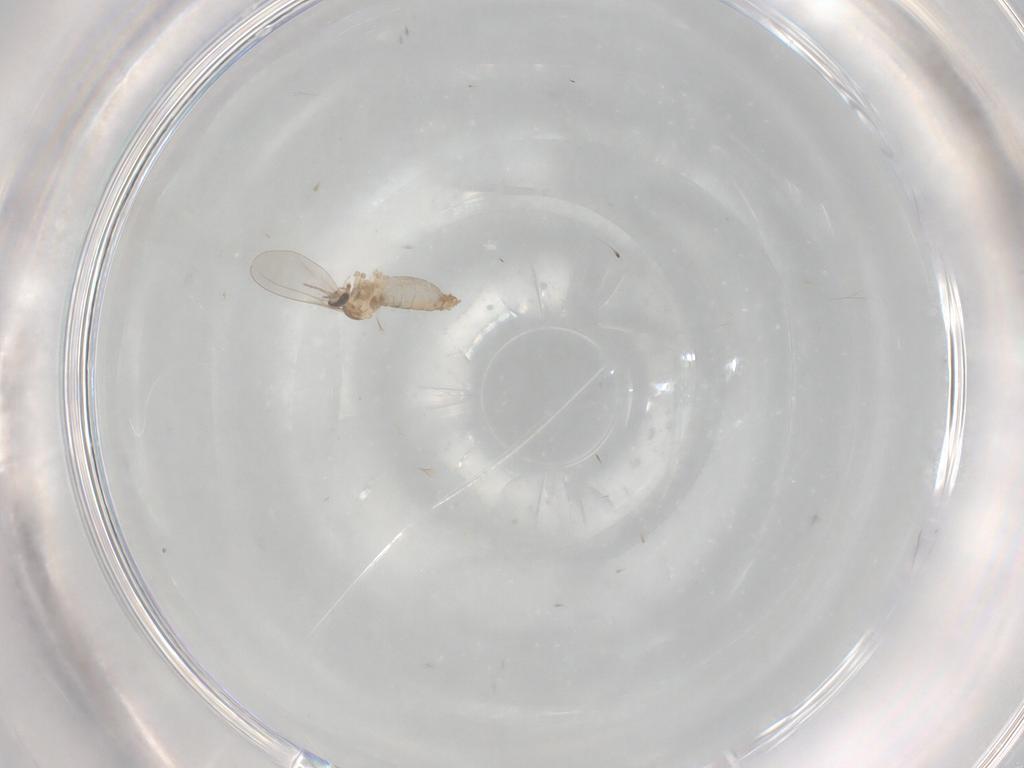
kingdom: Animalia
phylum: Arthropoda
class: Insecta
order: Diptera
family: Cecidomyiidae
